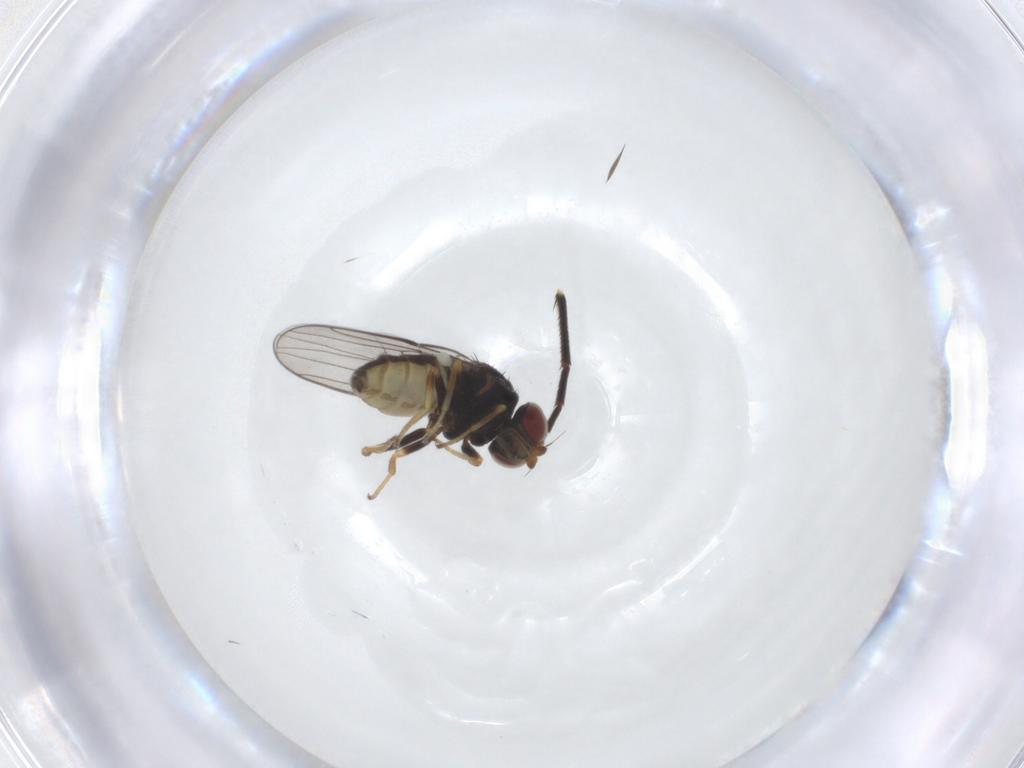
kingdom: Animalia
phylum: Arthropoda
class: Insecta
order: Diptera
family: Chloropidae
